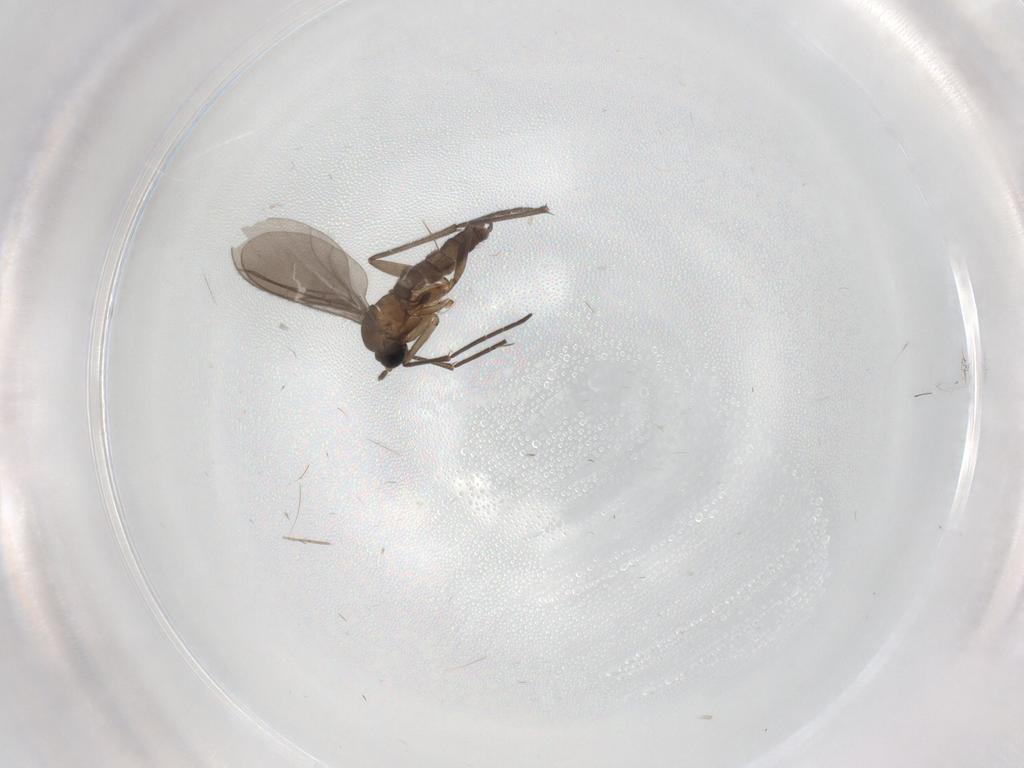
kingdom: Animalia
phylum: Arthropoda
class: Insecta
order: Diptera
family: Sciaridae
